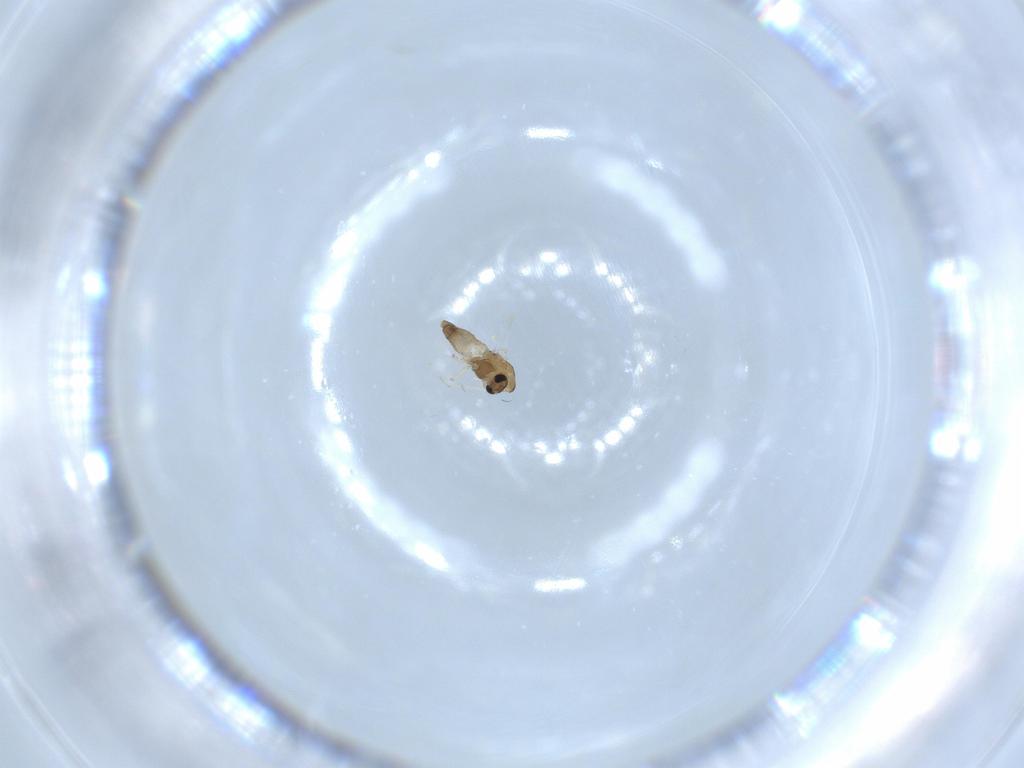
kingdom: Animalia
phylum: Arthropoda
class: Insecta
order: Diptera
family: Chironomidae
